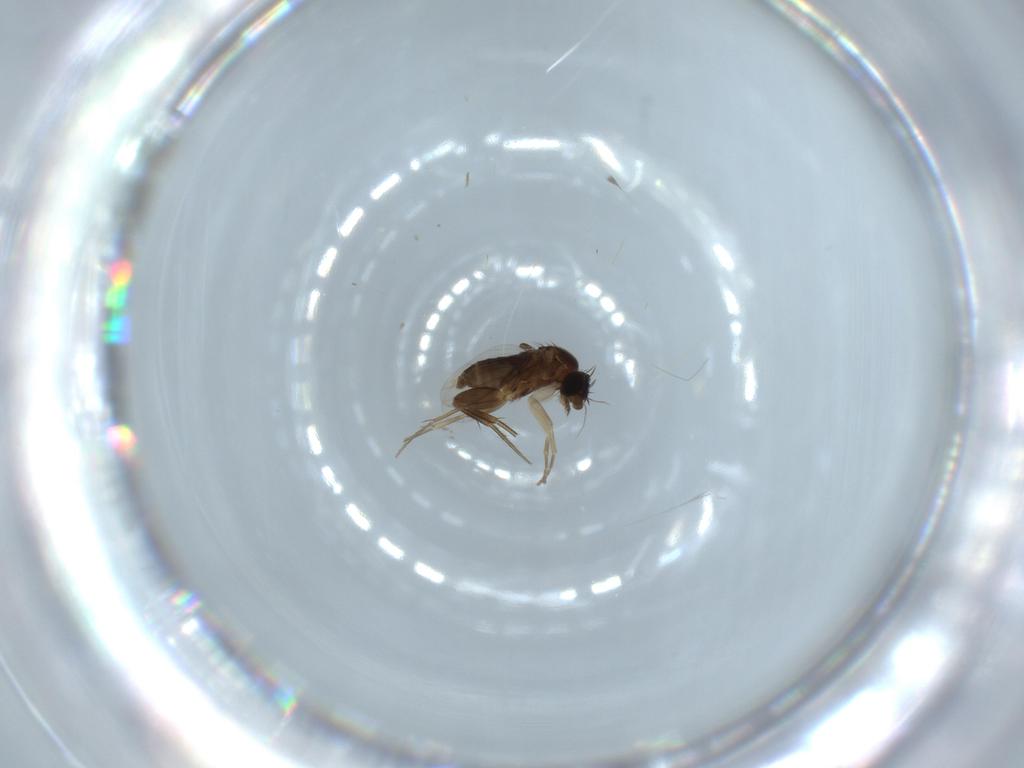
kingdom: Animalia
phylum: Arthropoda
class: Insecta
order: Diptera
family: Phoridae
